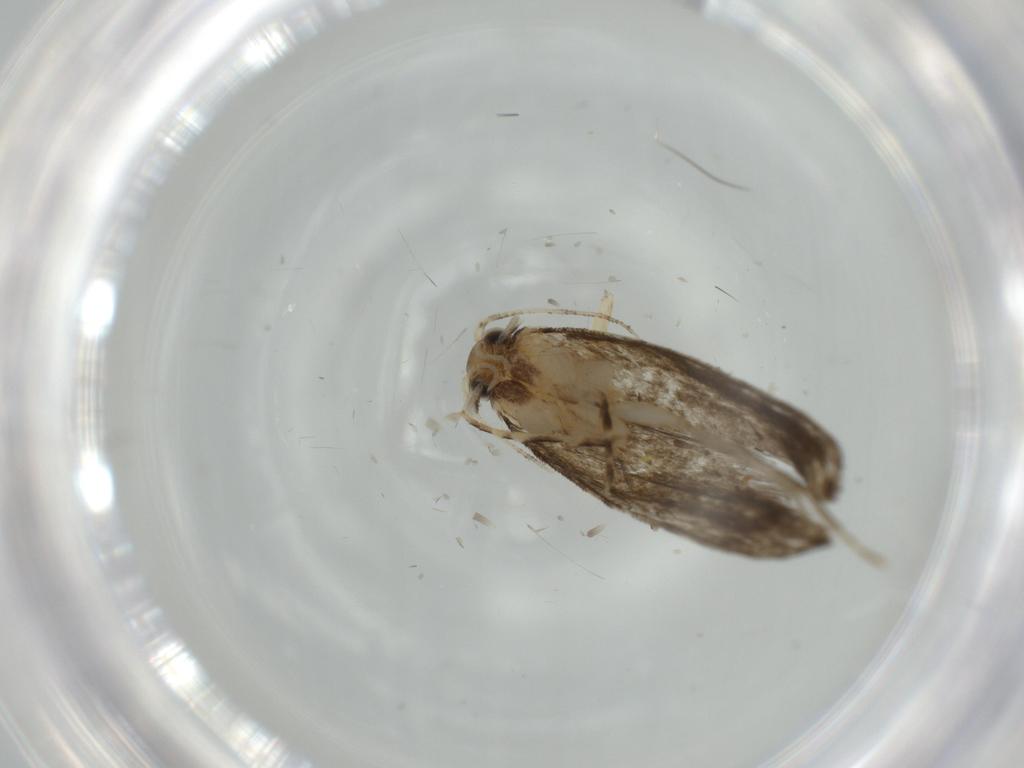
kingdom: Animalia
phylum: Arthropoda
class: Insecta
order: Lepidoptera
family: Tineidae
